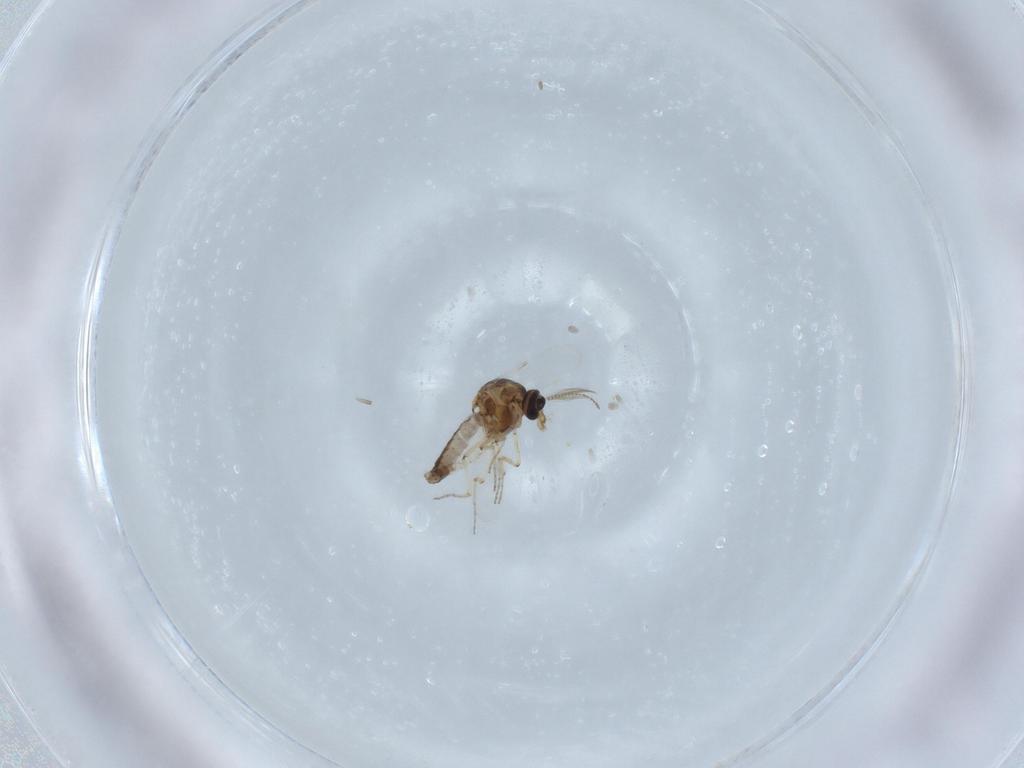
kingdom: Animalia
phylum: Arthropoda
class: Insecta
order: Diptera
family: Ceratopogonidae
